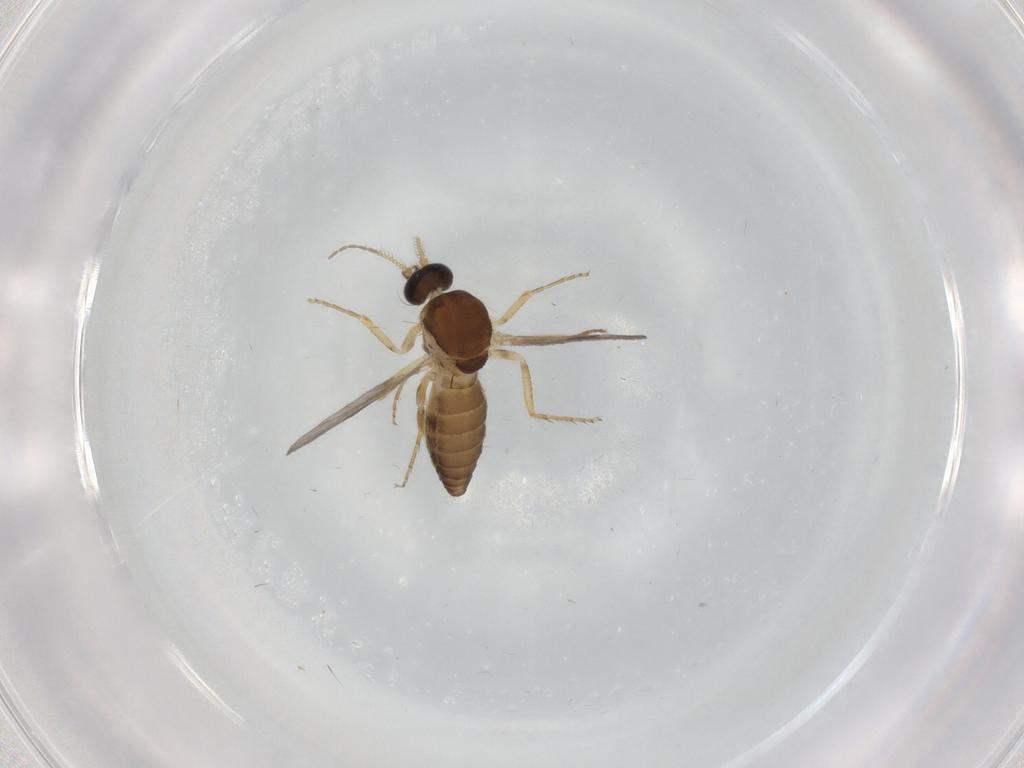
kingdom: Animalia
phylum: Arthropoda
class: Insecta
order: Diptera
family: Ceratopogonidae
